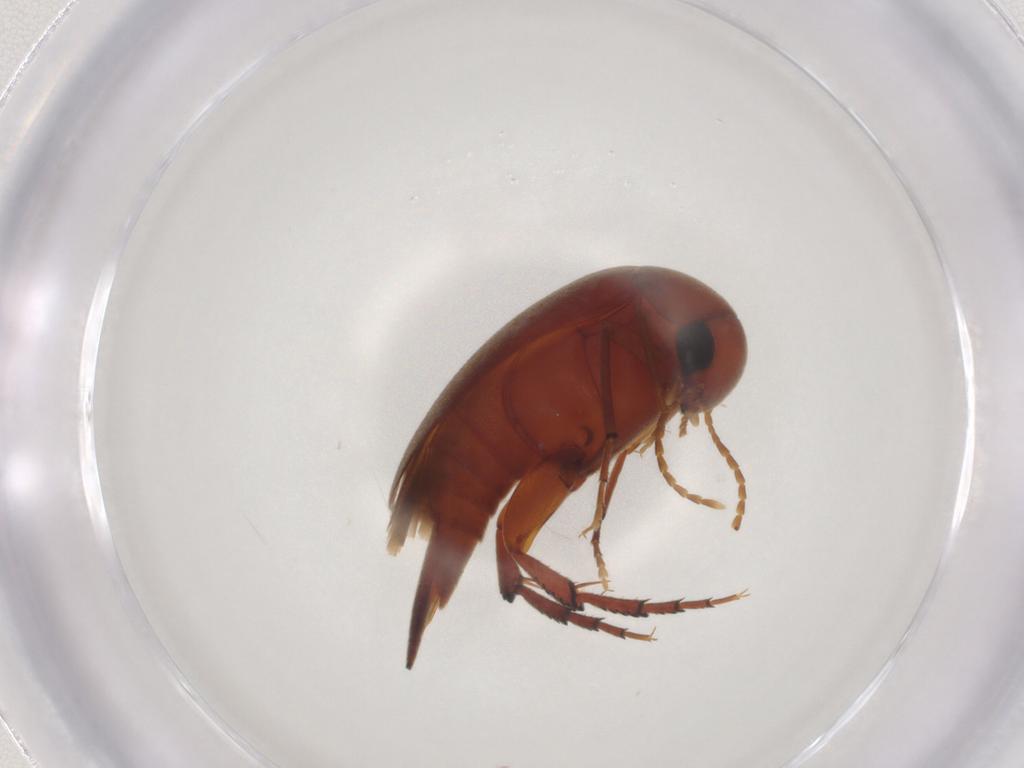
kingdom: Animalia
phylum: Arthropoda
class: Insecta
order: Coleoptera
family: Mordellidae
